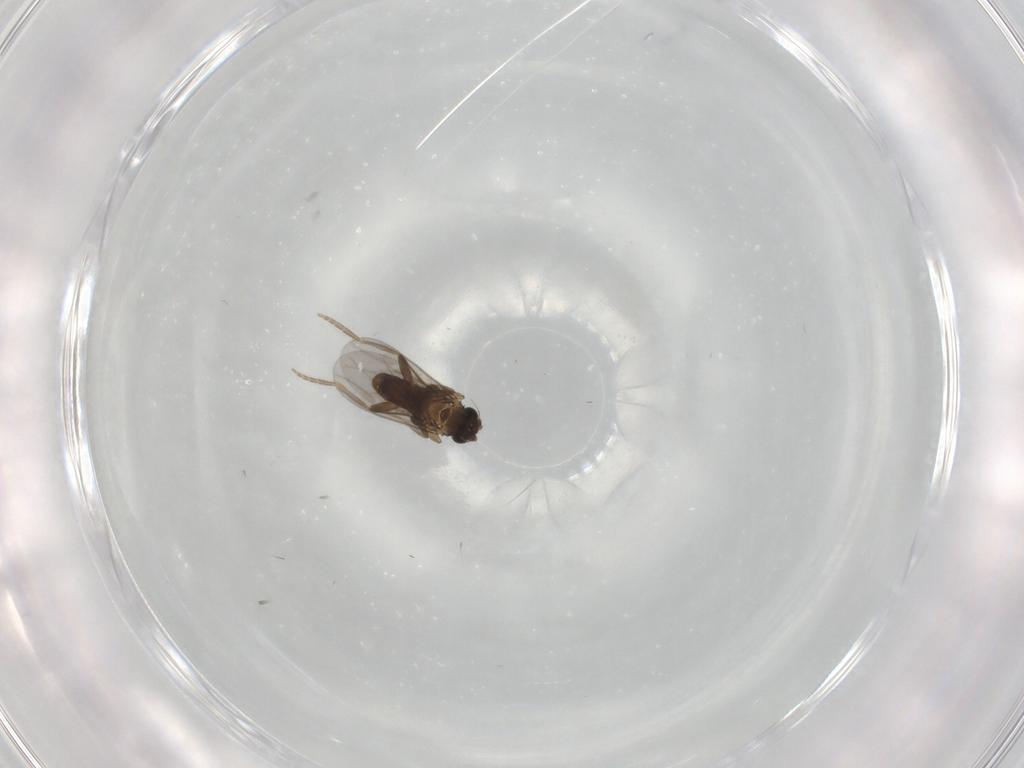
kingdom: Animalia
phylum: Arthropoda
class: Insecta
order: Diptera
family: Phoridae
